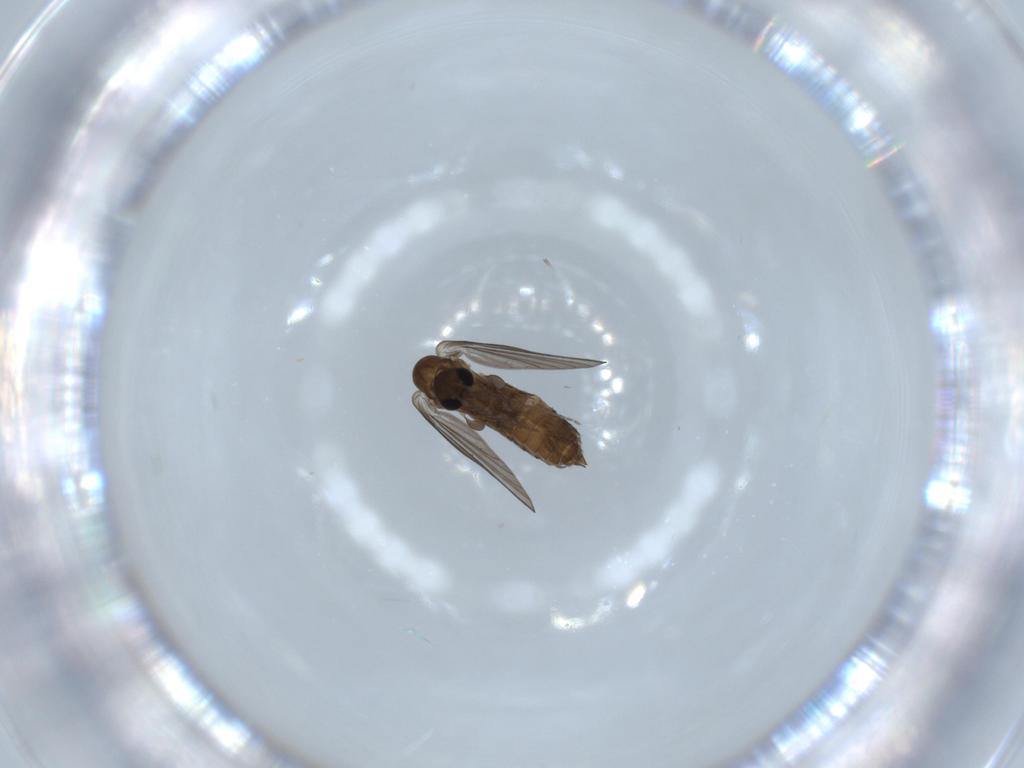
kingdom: Animalia
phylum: Arthropoda
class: Insecta
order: Diptera
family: Psychodidae
